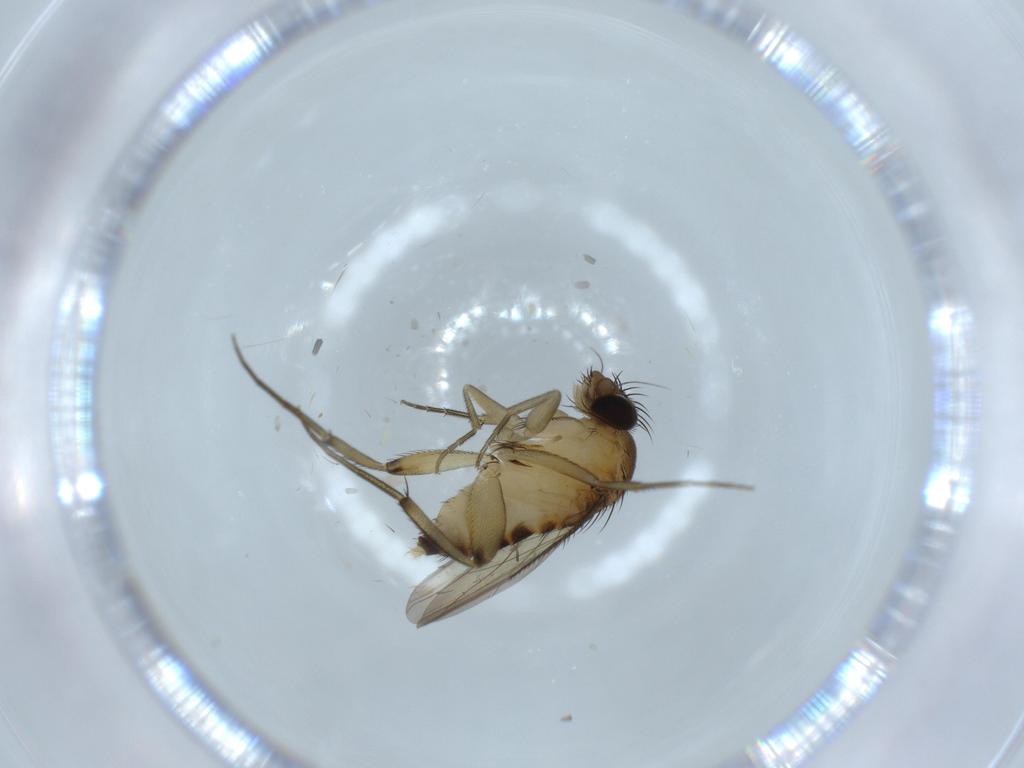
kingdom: Animalia
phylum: Arthropoda
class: Insecta
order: Diptera
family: Phoridae
